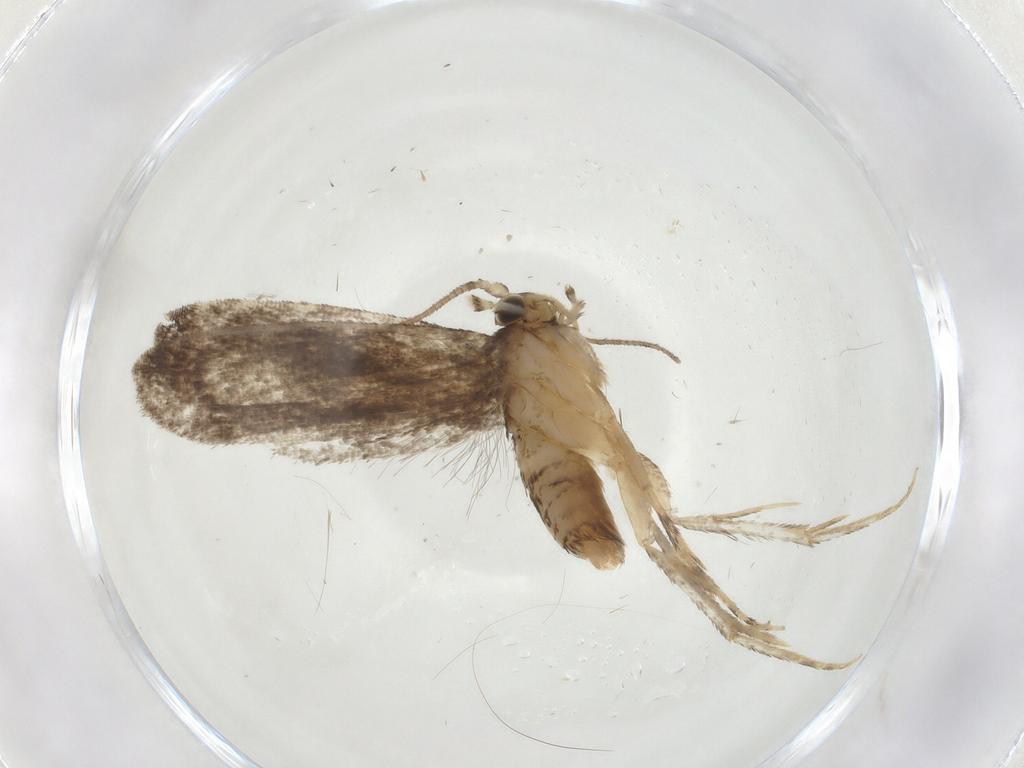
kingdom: Animalia
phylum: Arthropoda
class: Insecta
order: Lepidoptera
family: Tineidae
